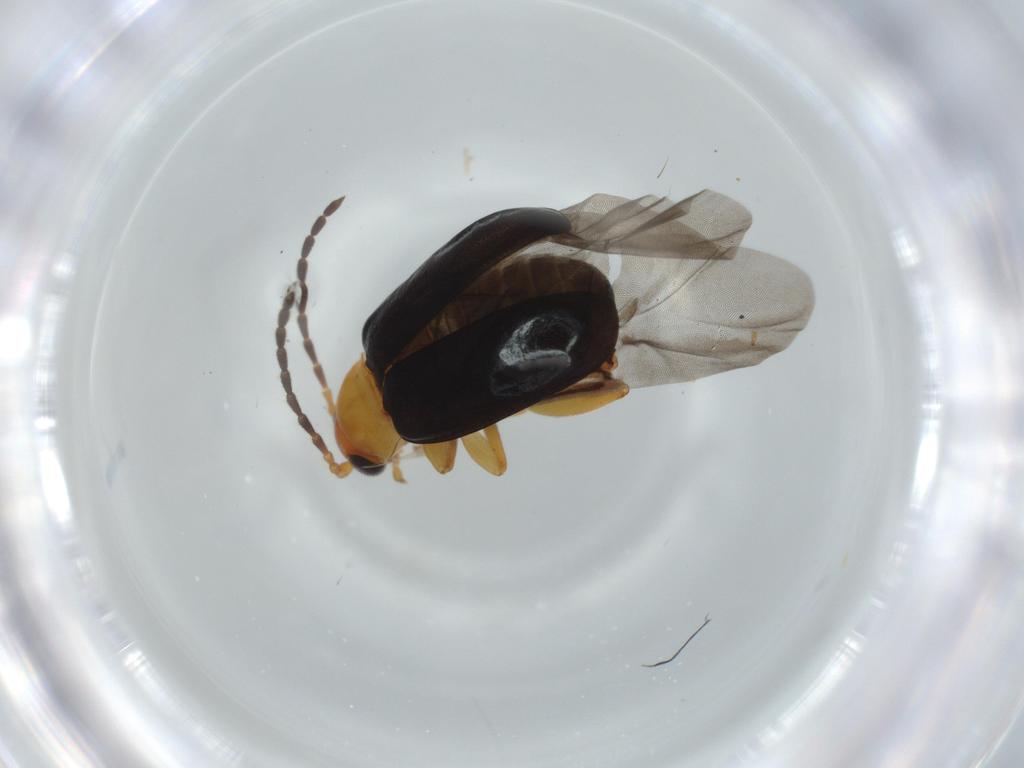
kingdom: Animalia
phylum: Arthropoda
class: Insecta
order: Coleoptera
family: Chrysomelidae
